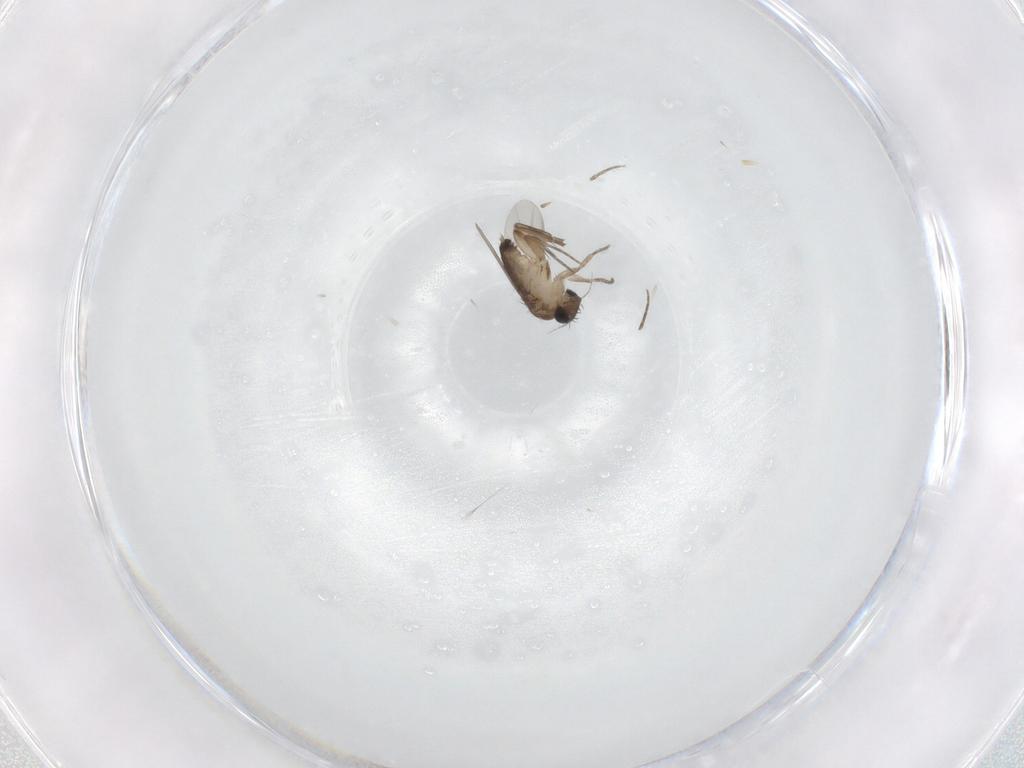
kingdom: Animalia
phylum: Arthropoda
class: Insecta
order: Diptera
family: Phoridae
